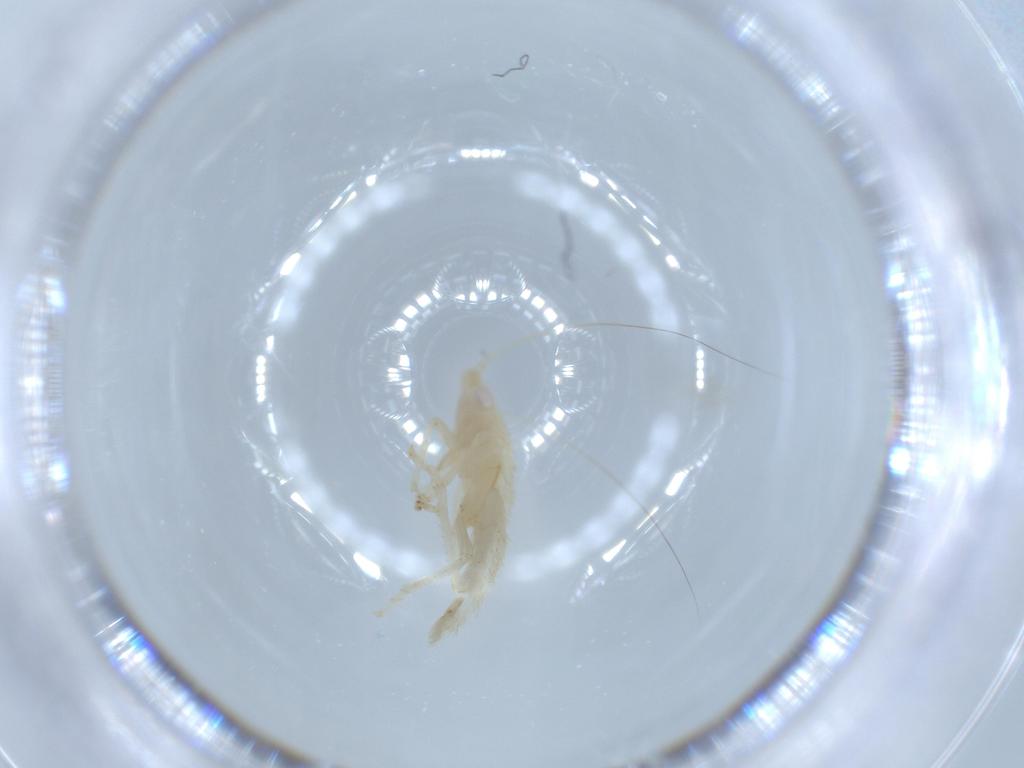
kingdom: Animalia
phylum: Arthropoda
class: Insecta
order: Hemiptera
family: Cicadellidae
